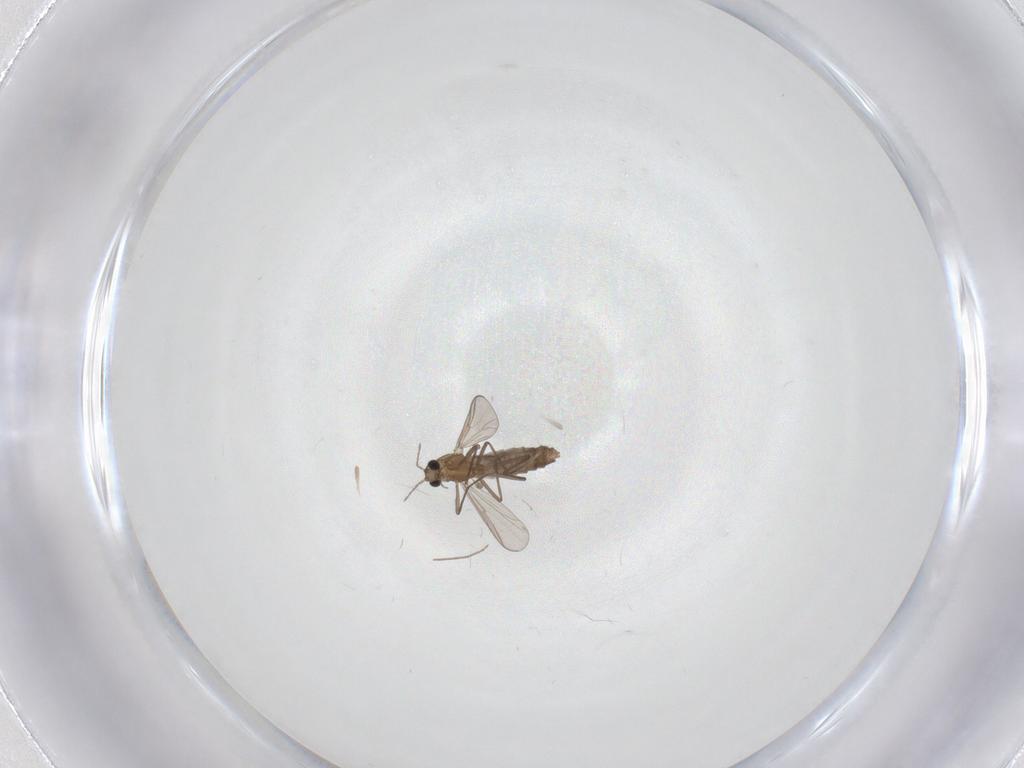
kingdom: Animalia
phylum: Arthropoda
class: Insecta
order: Diptera
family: Chironomidae
